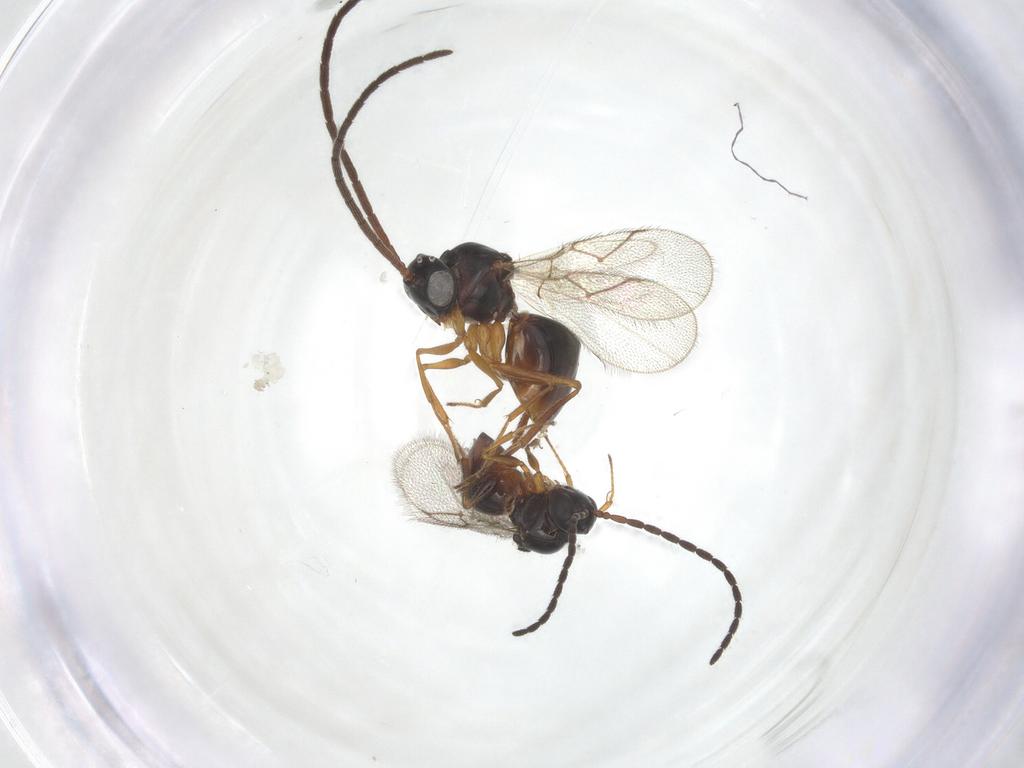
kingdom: Animalia
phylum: Arthropoda
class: Insecta
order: Hymenoptera
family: Figitidae
